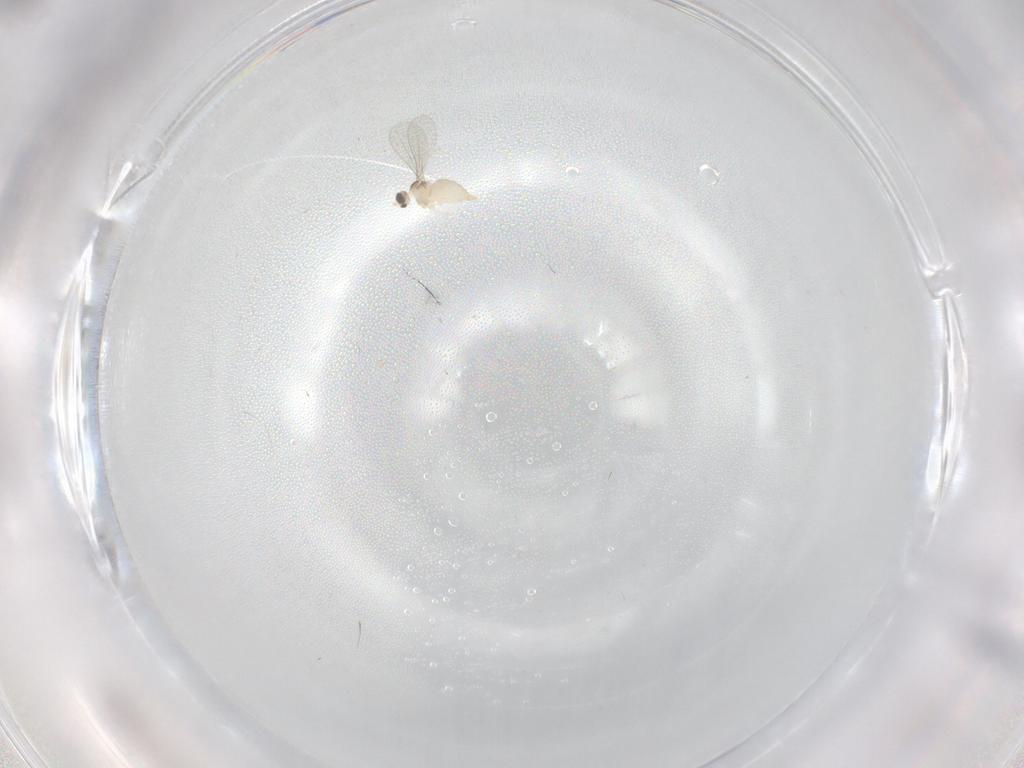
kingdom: Animalia
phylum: Arthropoda
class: Insecta
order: Diptera
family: Cecidomyiidae
